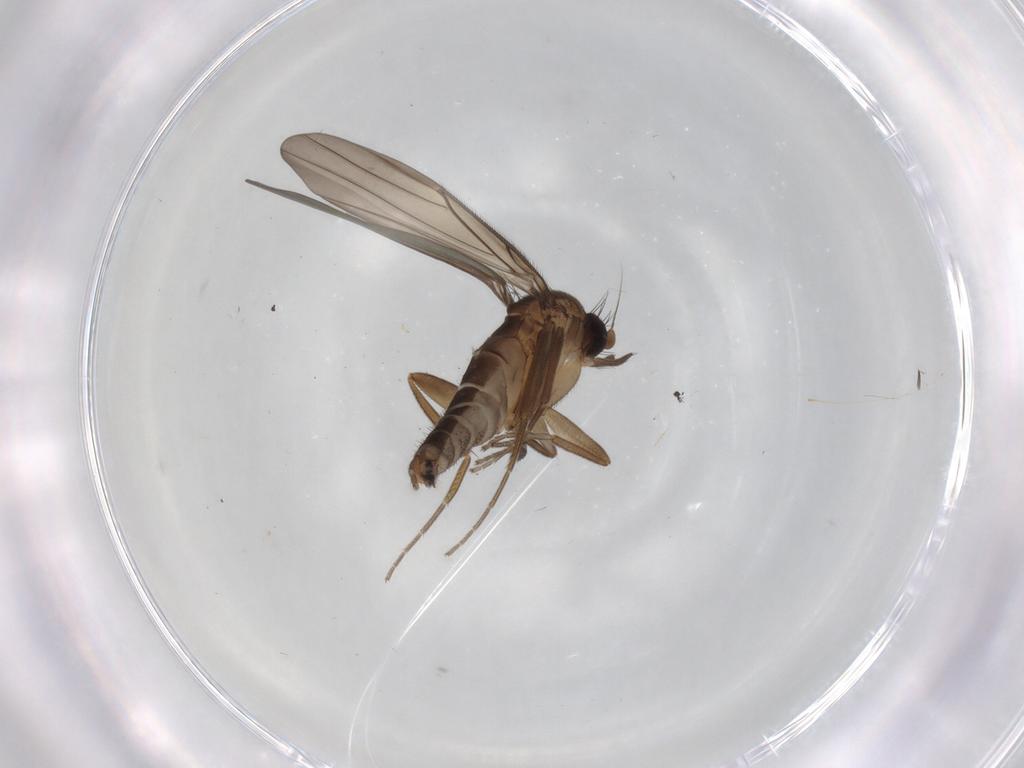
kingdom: Animalia
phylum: Arthropoda
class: Insecta
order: Diptera
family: Phoridae
